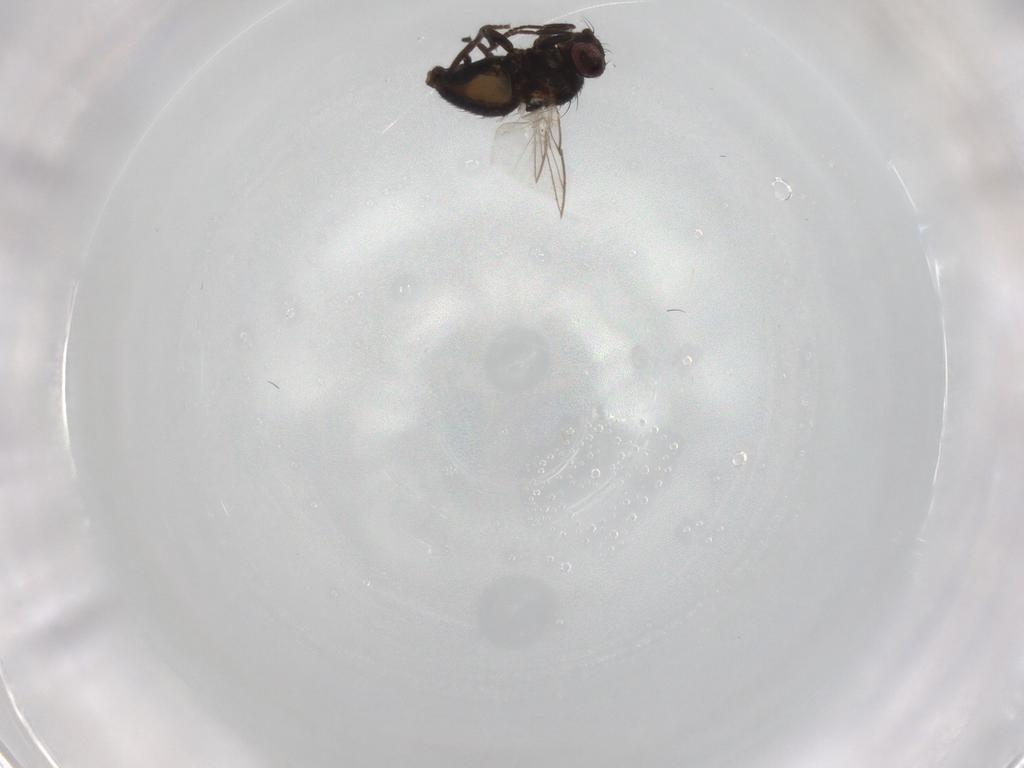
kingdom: Animalia
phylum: Arthropoda
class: Insecta
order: Diptera
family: Agromyzidae
